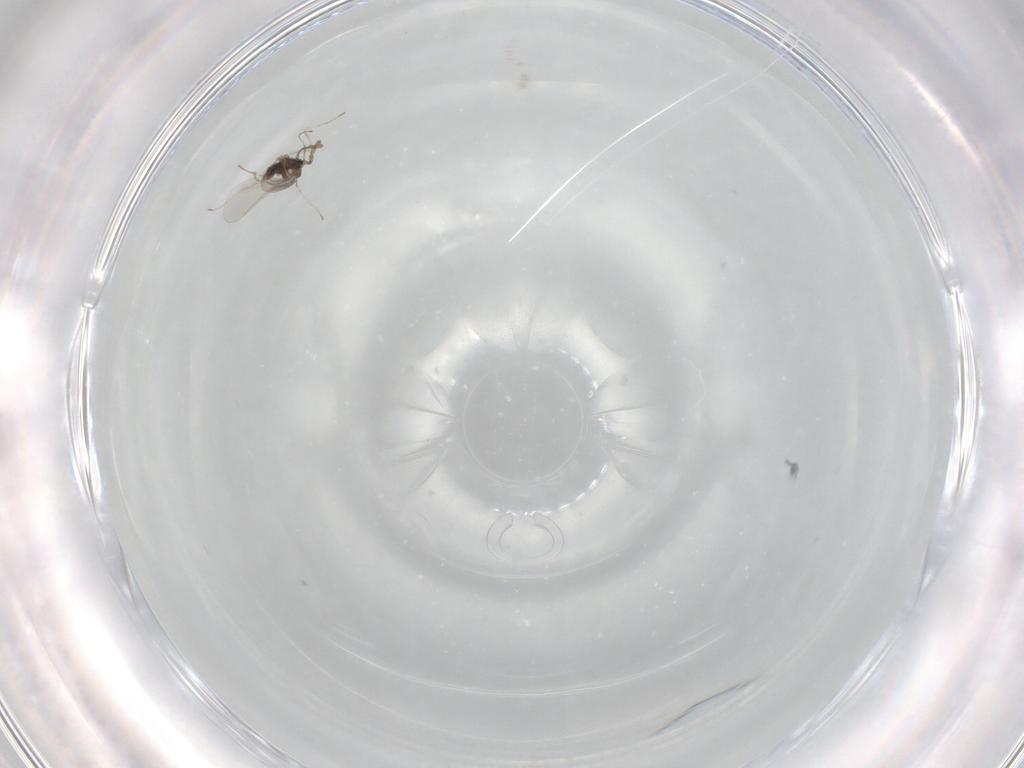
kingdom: Animalia
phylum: Arthropoda
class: Insecta
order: Diptera
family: Cecidomyiidae
